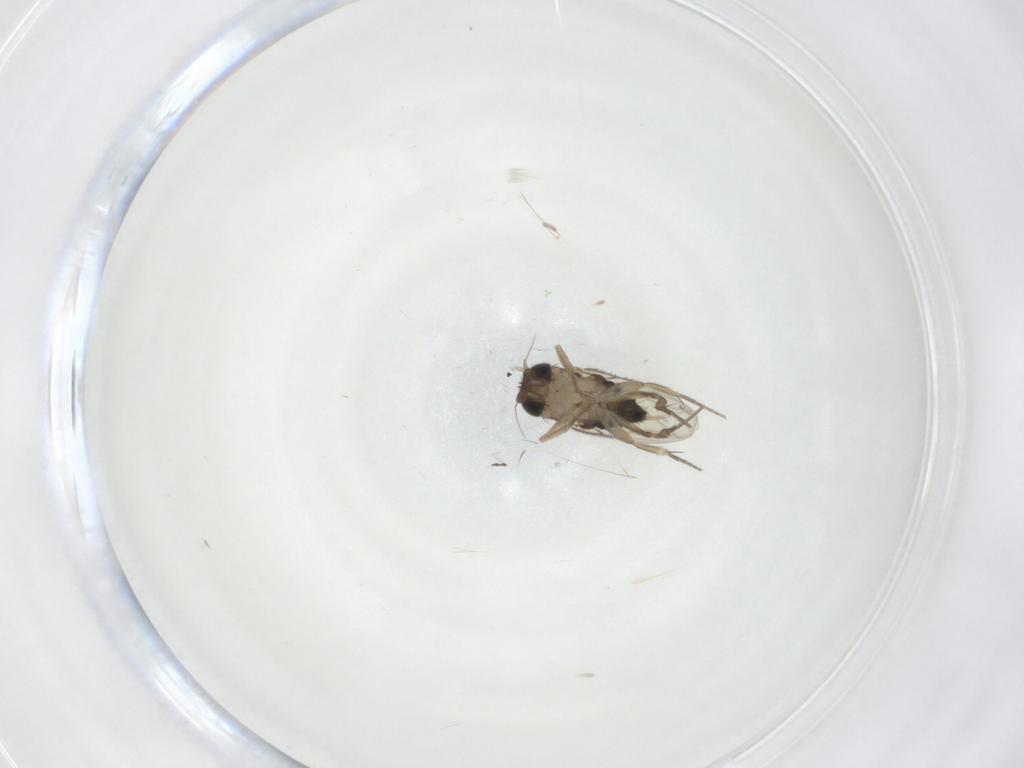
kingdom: Animalia
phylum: Arthropoda
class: Insecta
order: Diptera
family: Phoridae
